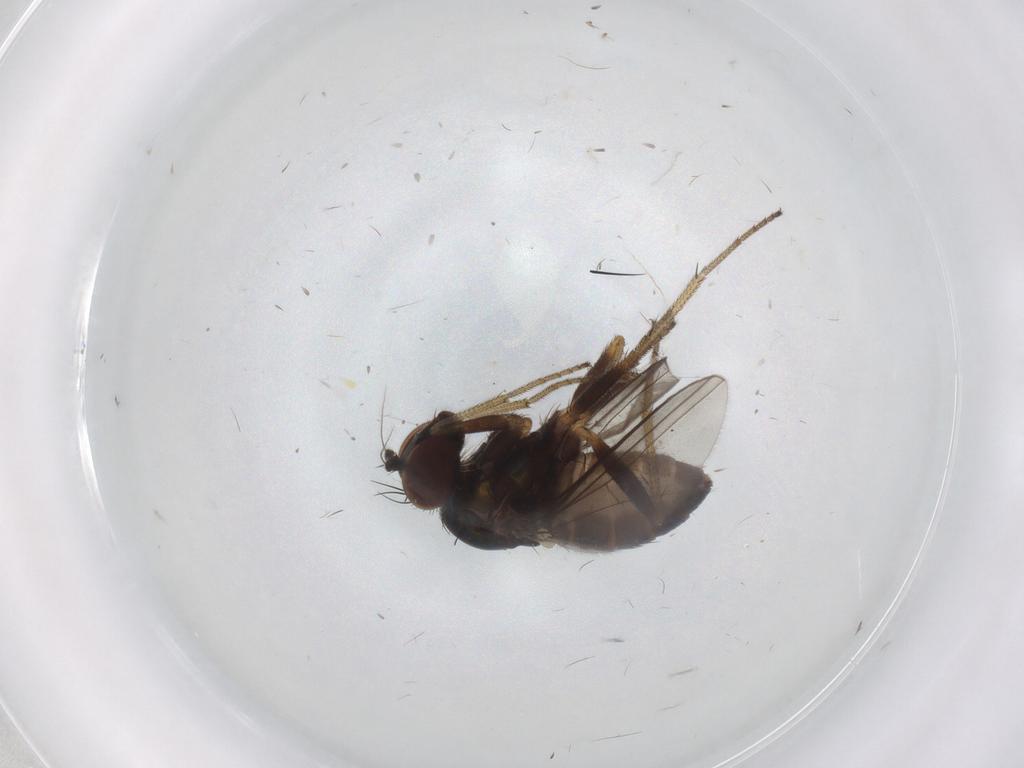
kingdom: Animalia
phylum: Arthropoda
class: Insecta
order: Diptera
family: Dolichopodidae
